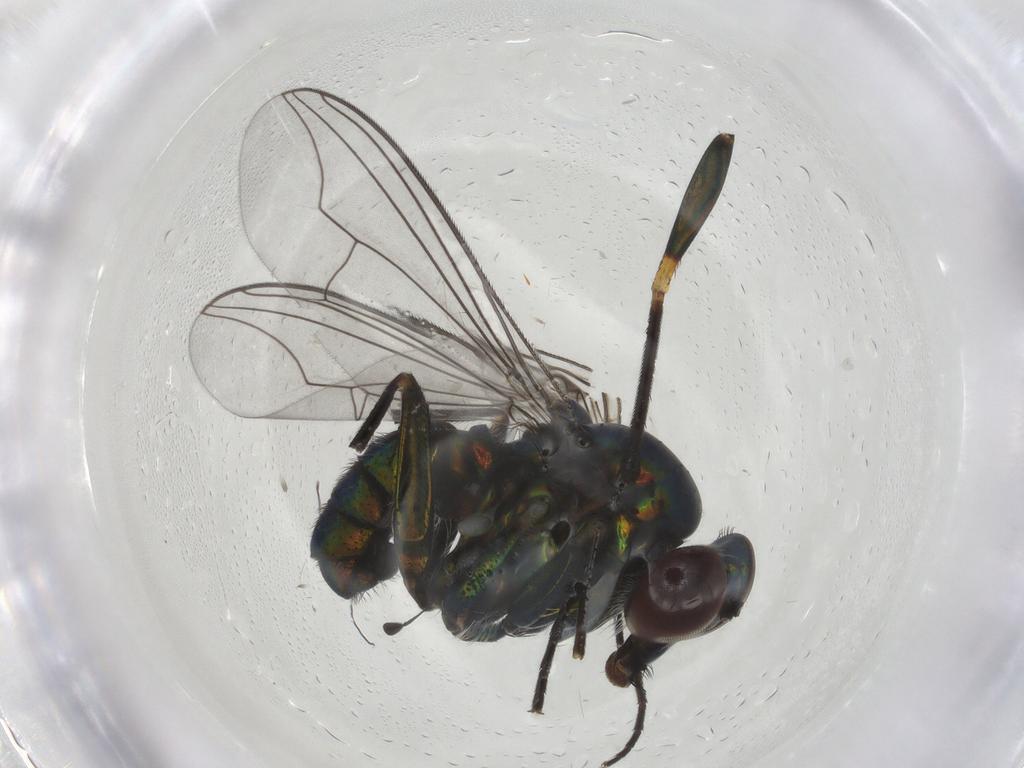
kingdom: Animalia
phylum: Arthropoda
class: Insecta
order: Diptera
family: Dolichopodidae
